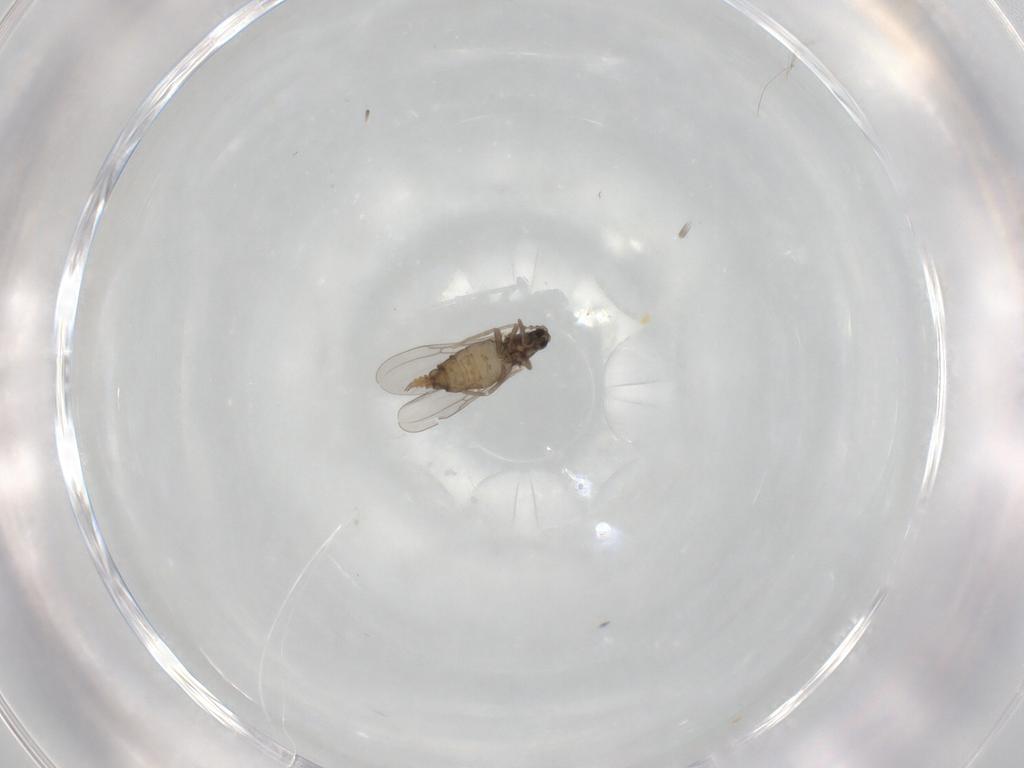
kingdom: Animalia
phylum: Arthropoda
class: Insecta
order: Diptera
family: Cecidomyiidae
